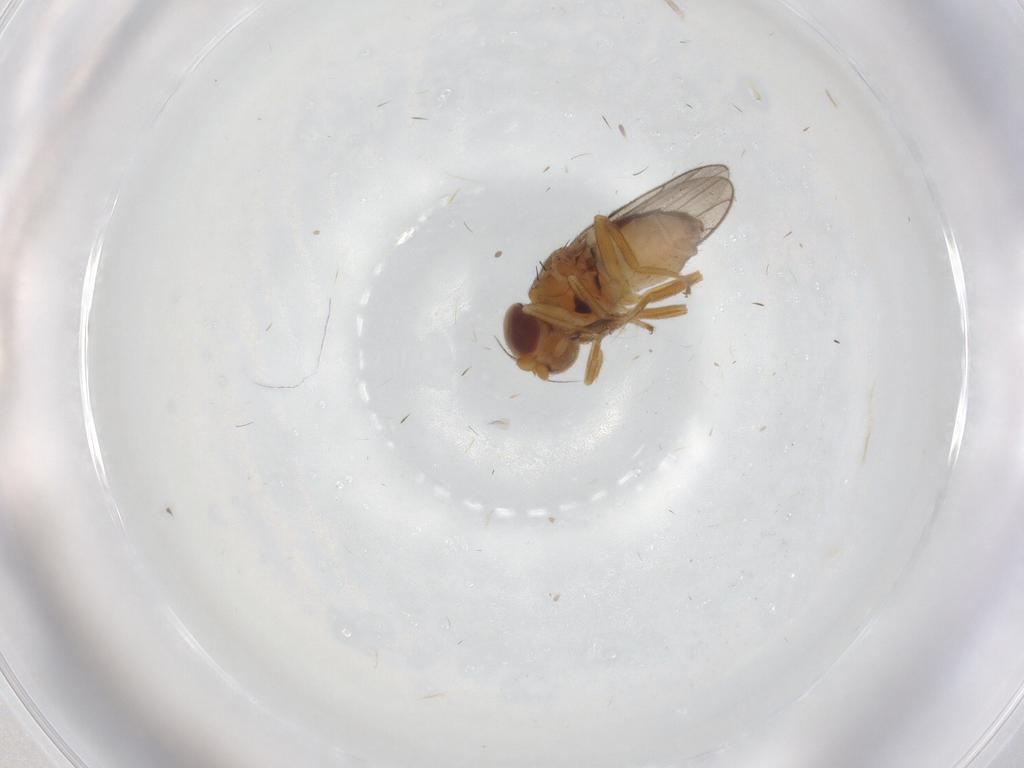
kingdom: Animalia
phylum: Arthropoda
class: Insecta
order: Diptera
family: Chloropidae
